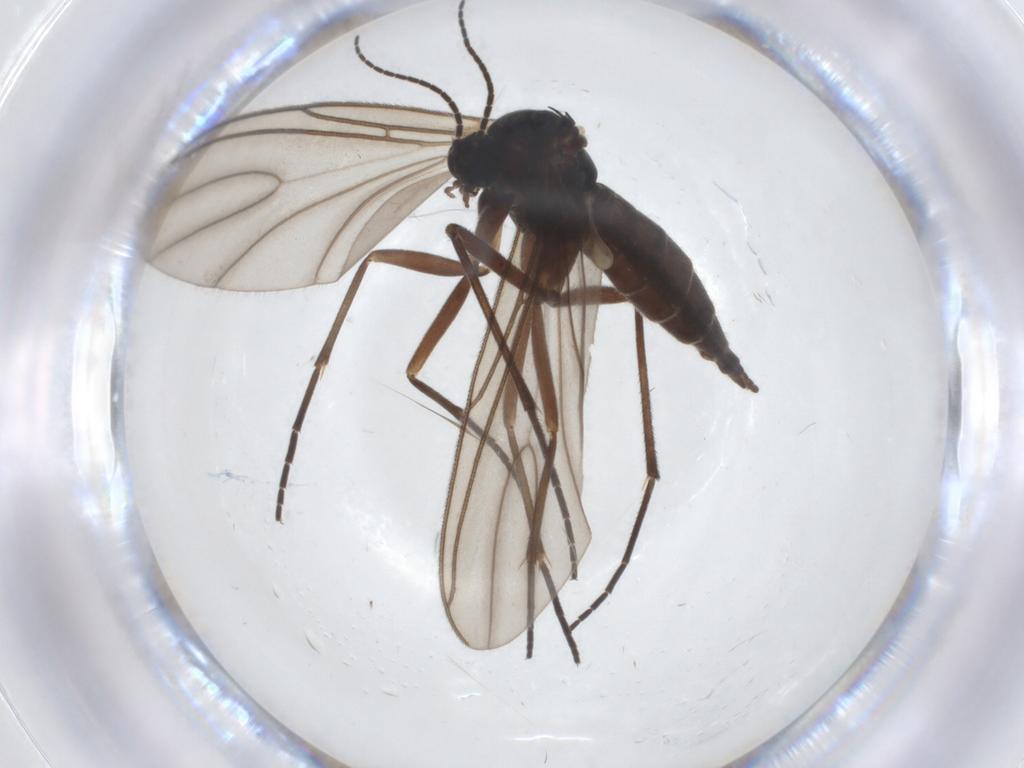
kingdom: Animalia
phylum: Arthropoda
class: Insecta
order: Diptera
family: Sciaridae
